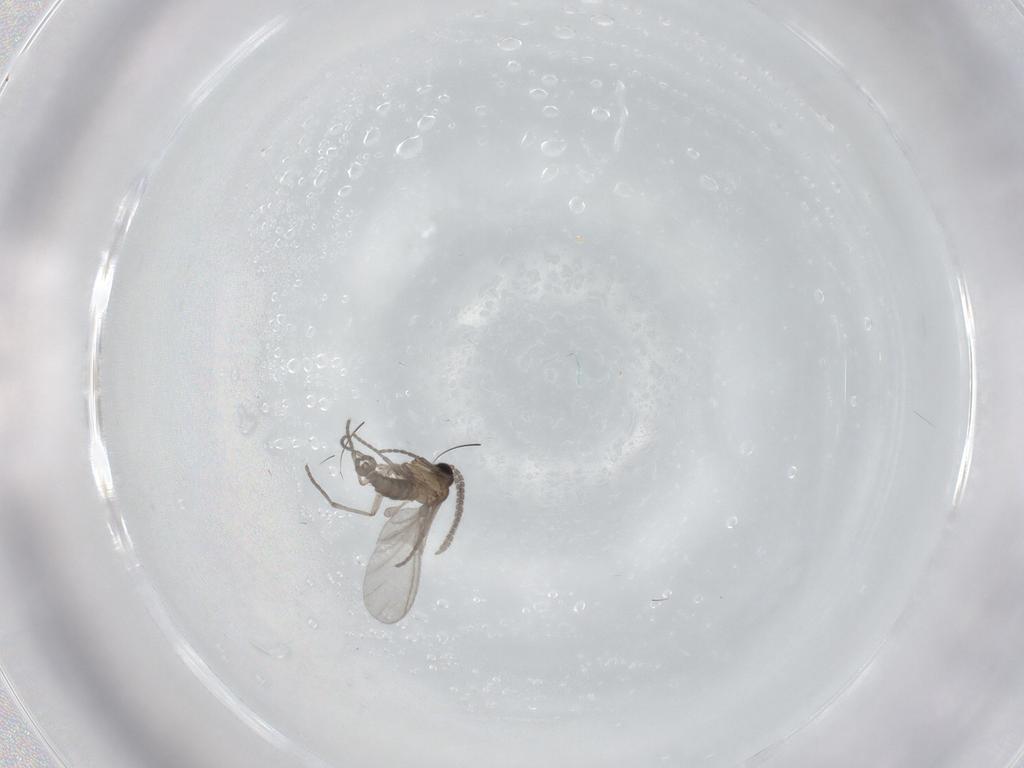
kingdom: Animalia
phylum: Arthropoda
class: Insecta
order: Diptera
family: Sciaridae
